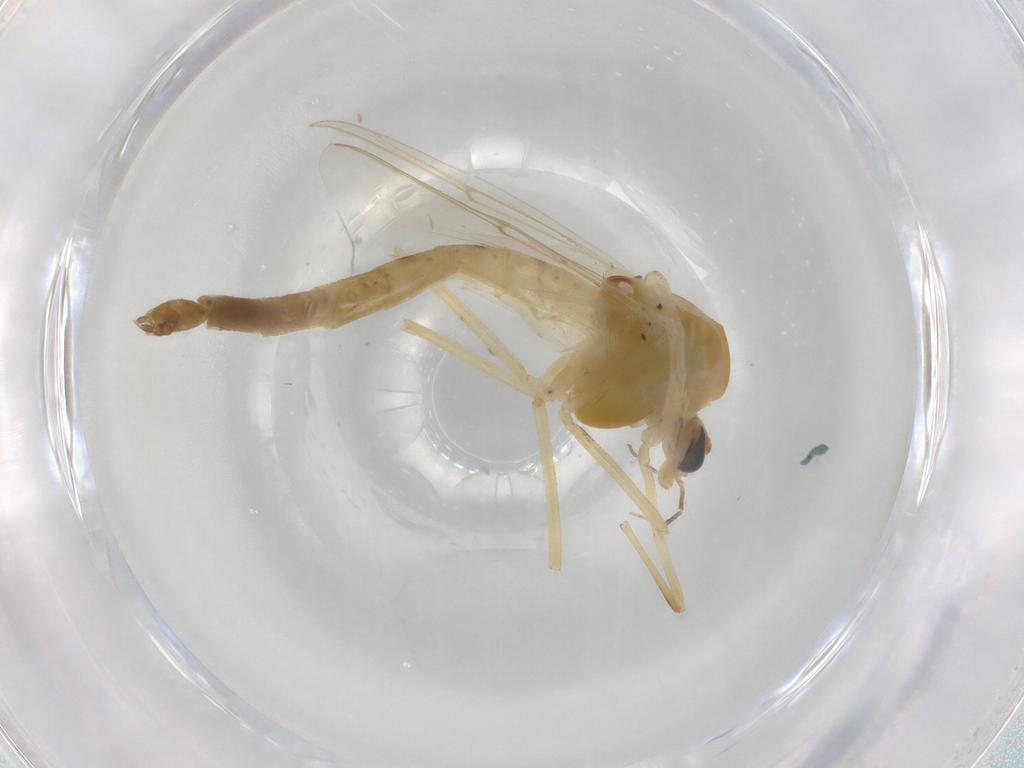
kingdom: Animalia
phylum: Arthropoda
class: Insecta
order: Diptera
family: Chironomidae
